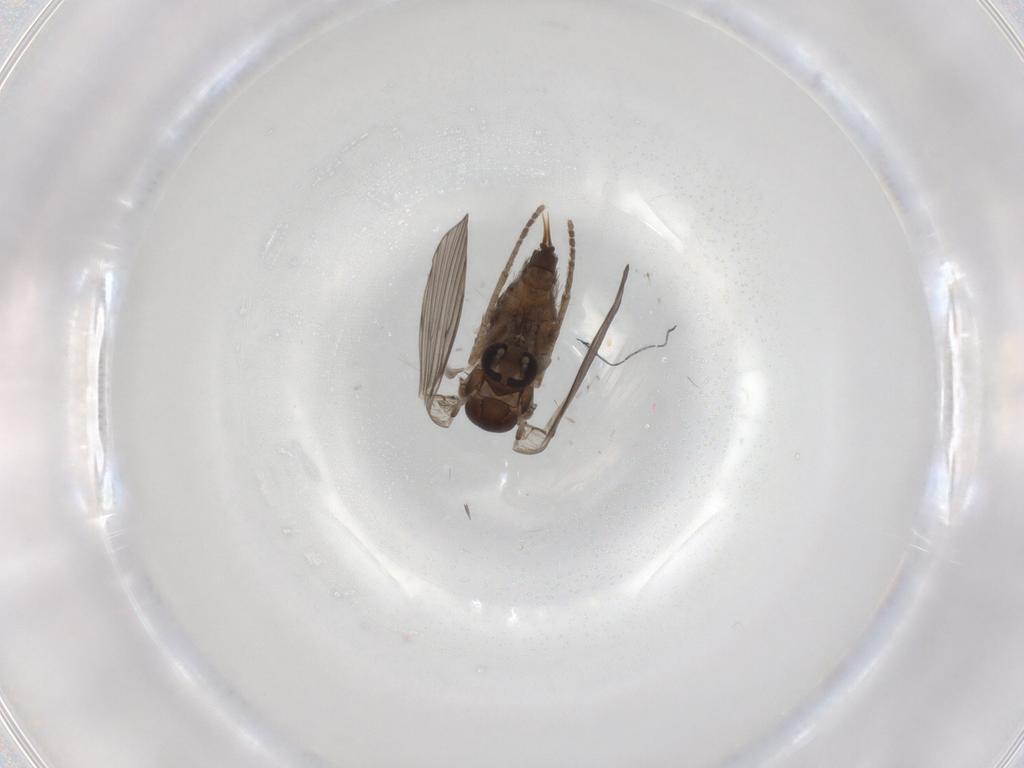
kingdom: Animalia
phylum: Arthropoda
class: Insecta
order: Diptera
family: Psychodidae
